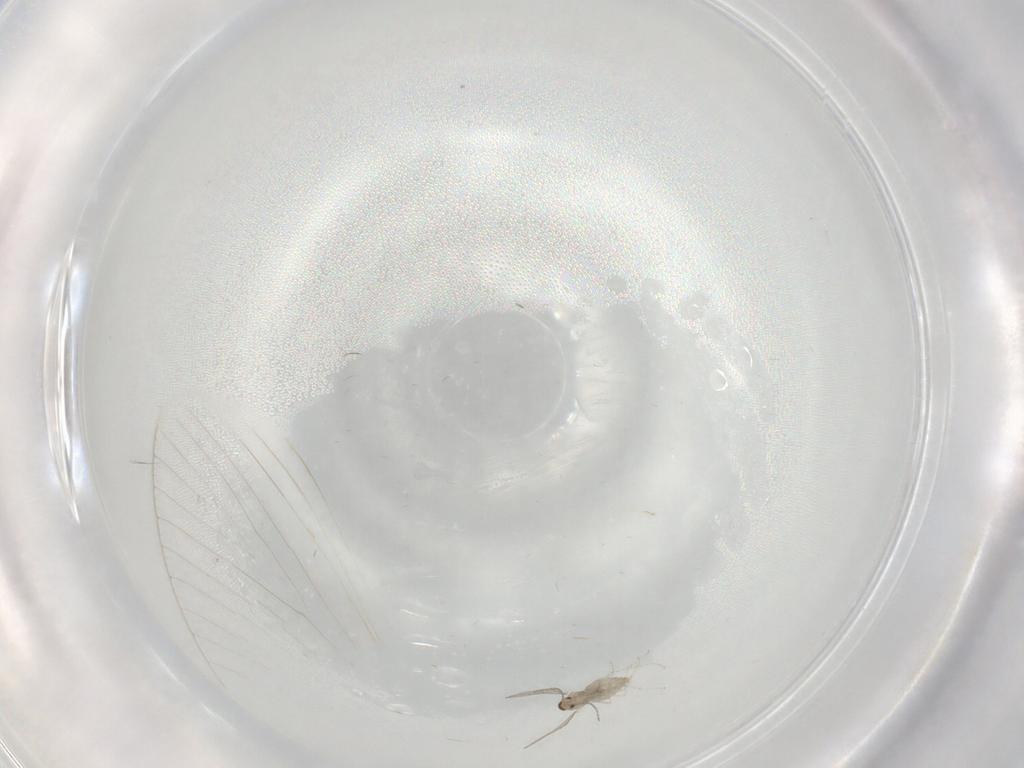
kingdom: Animalia
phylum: Arthropoda
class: Insecta
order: Diptera
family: Cecidomyiidae
